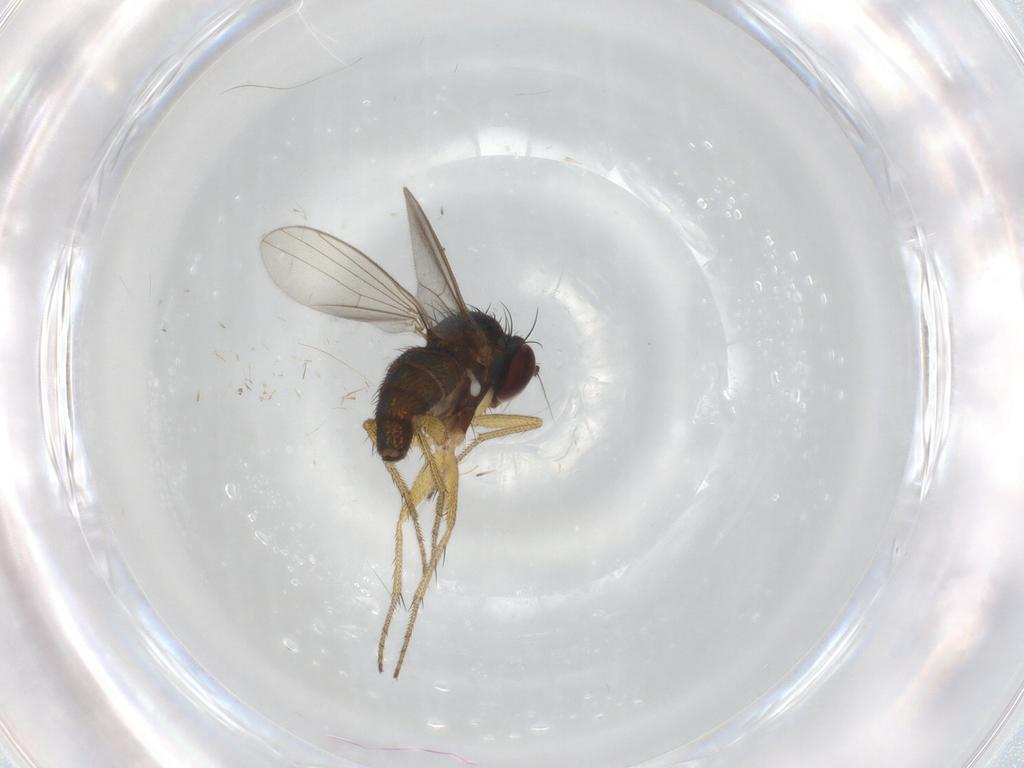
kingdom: Animalia
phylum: Arthropoda
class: Insecta
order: Diptera
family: Dolichopodidae
